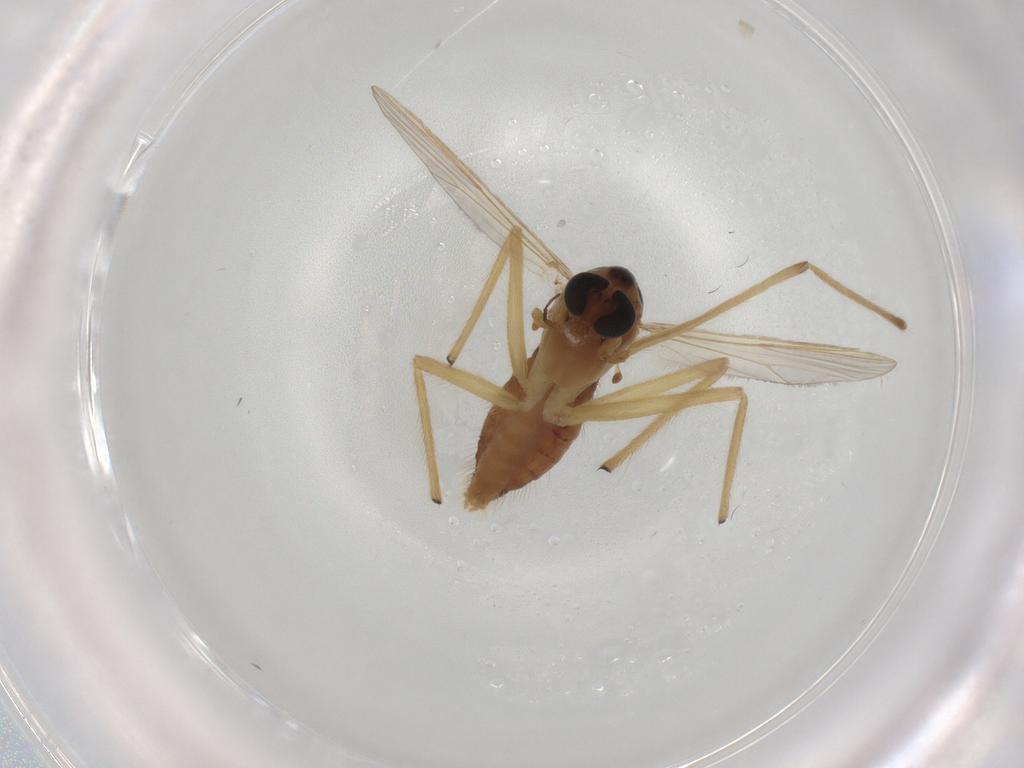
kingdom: Animalia
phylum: Arthropoda
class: Insecta
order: Diptera
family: Chironomidae
